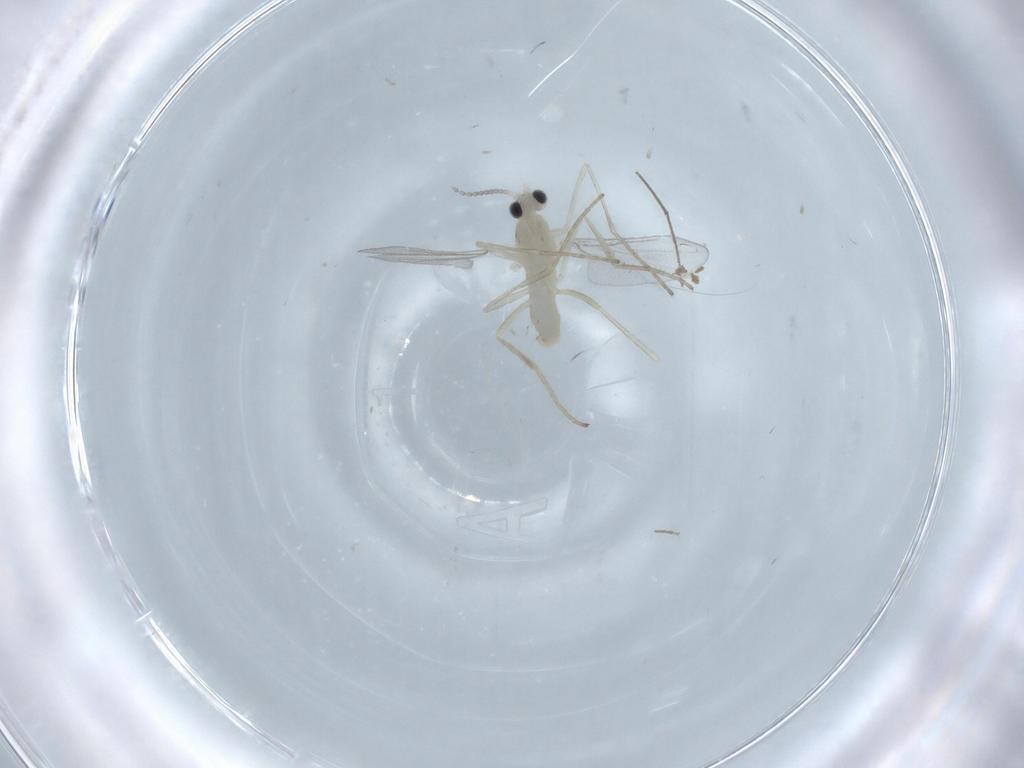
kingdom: Animalia
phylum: Arthropoda
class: Insecta
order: Diptera
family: Cecidomyiidae
